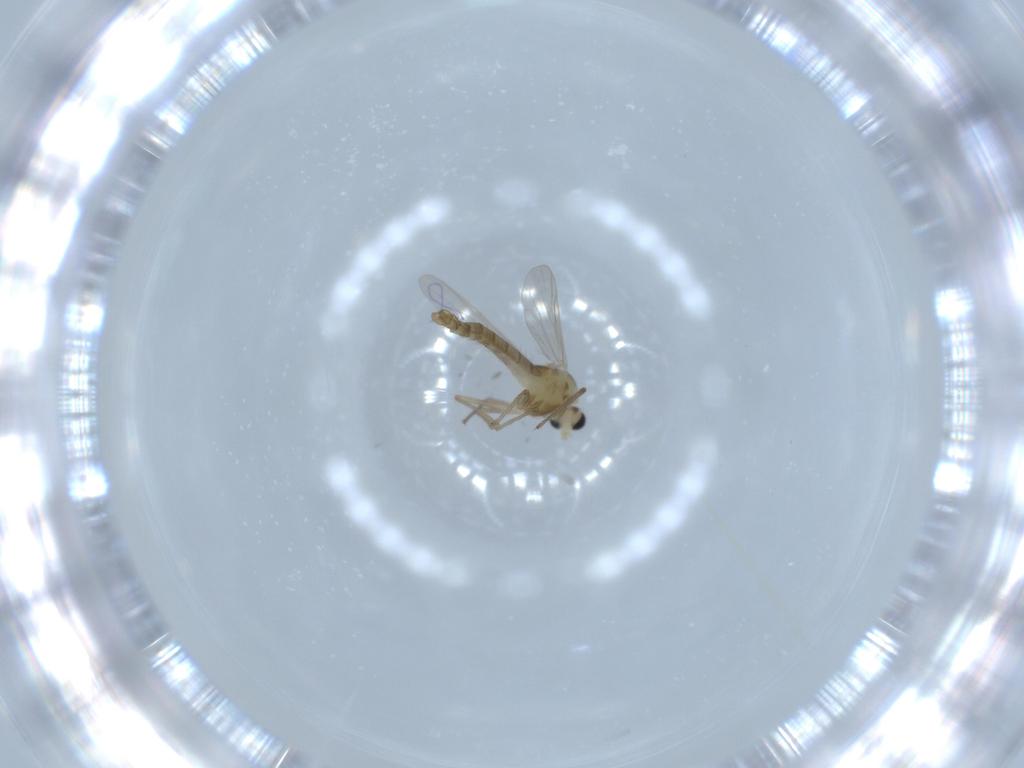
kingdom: Animalia
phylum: Arthropoda
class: Insecta
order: Diptera
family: Chironomidae
